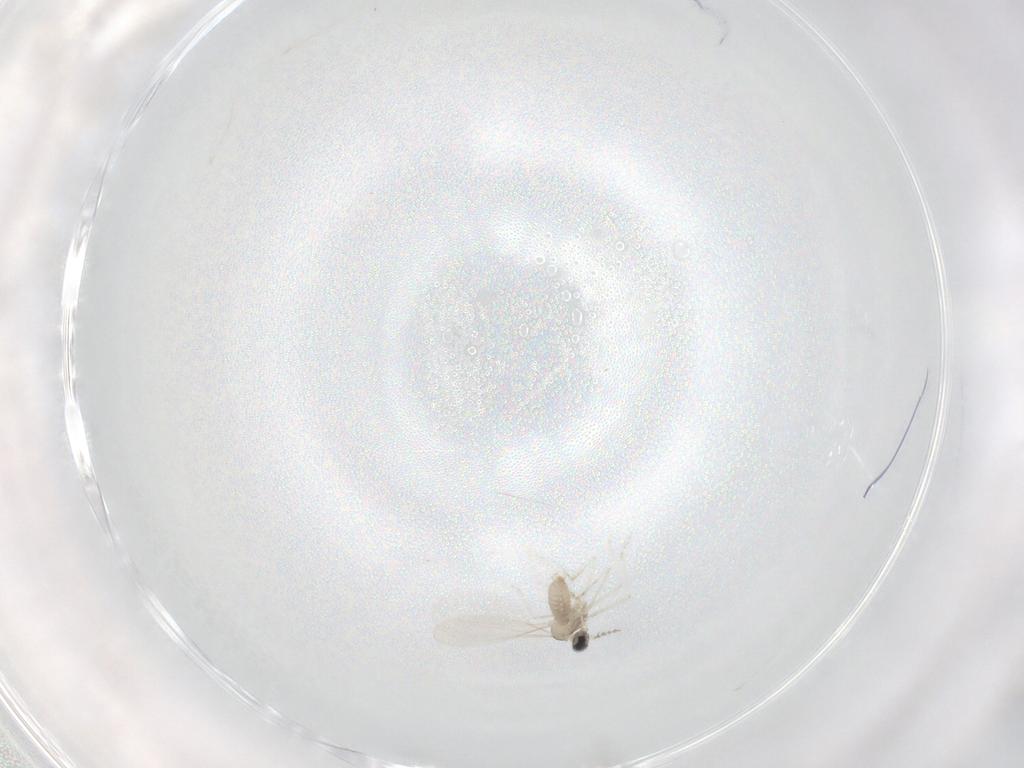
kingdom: Animalia
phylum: Arthropoda
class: Insecta
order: Diptera
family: Cecidomyiidae
